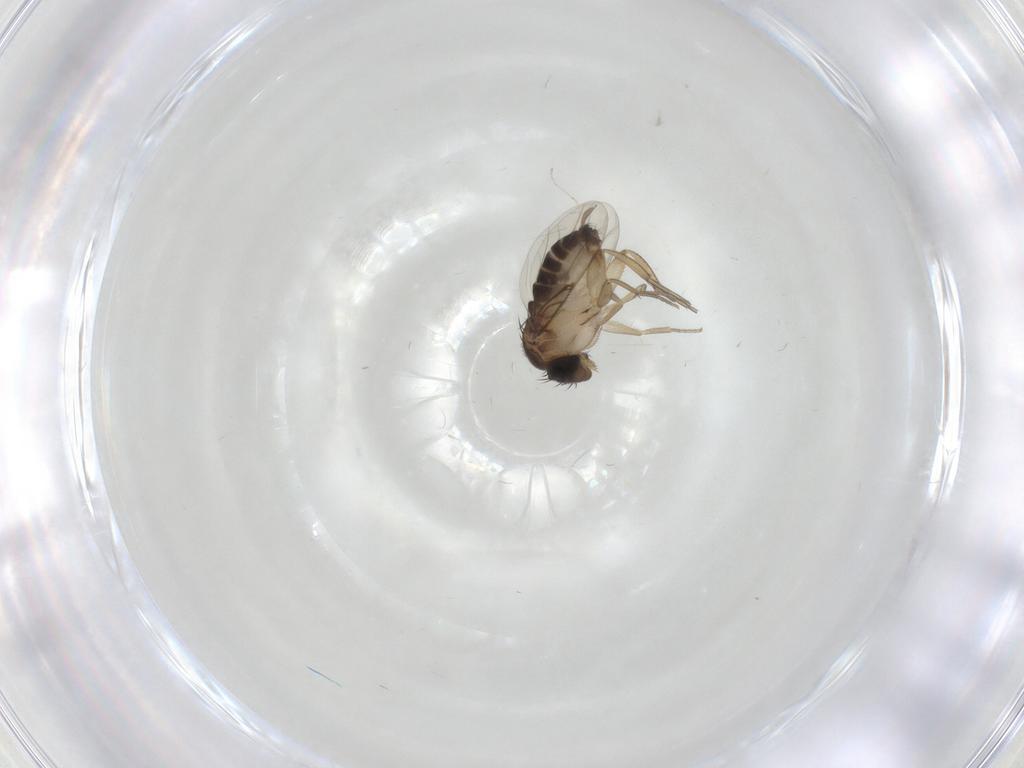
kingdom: Animalia
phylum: Arthropoda
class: Insecta
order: Diptera
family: Cecidomyiidae
